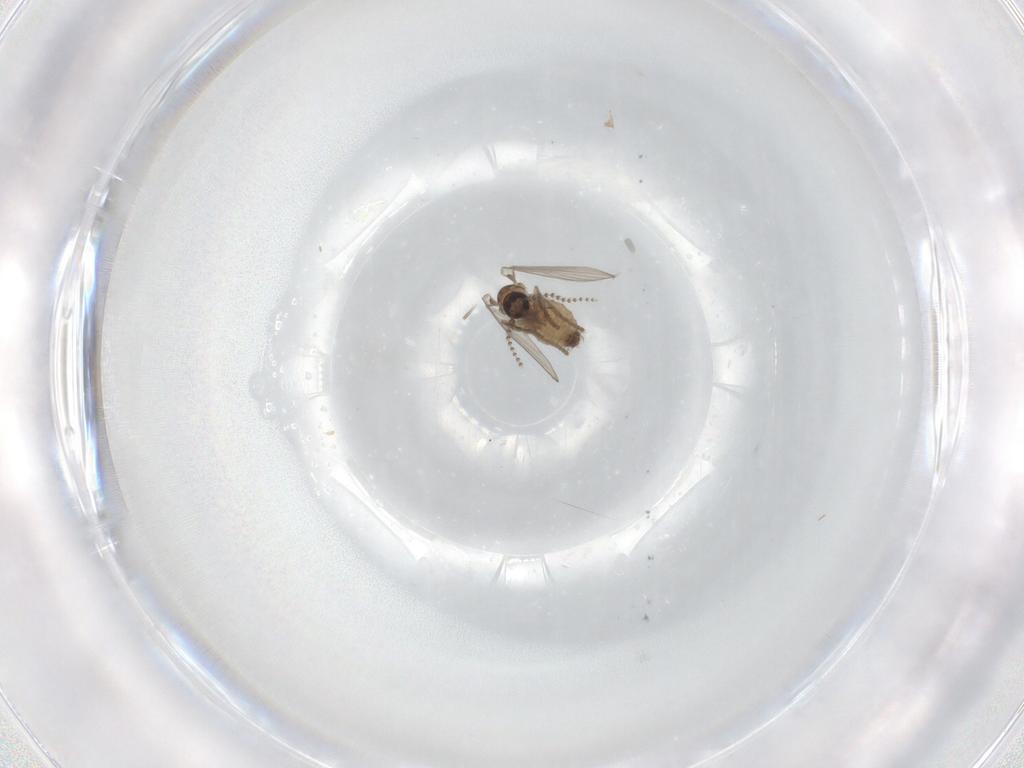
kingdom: Animalia
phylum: Arthropoda
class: Insecta
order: Diptera
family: Psychodidae
